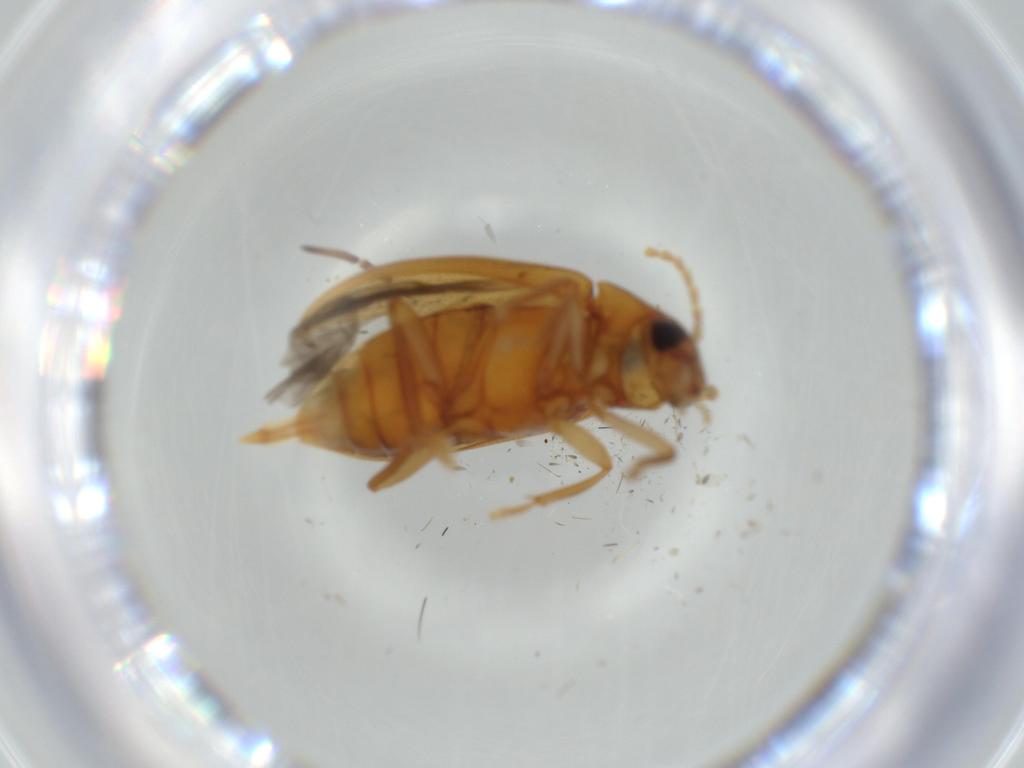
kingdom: Animalia
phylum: Arthropoda
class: Insecta
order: Coleoptera
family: Ptilodactylidae
